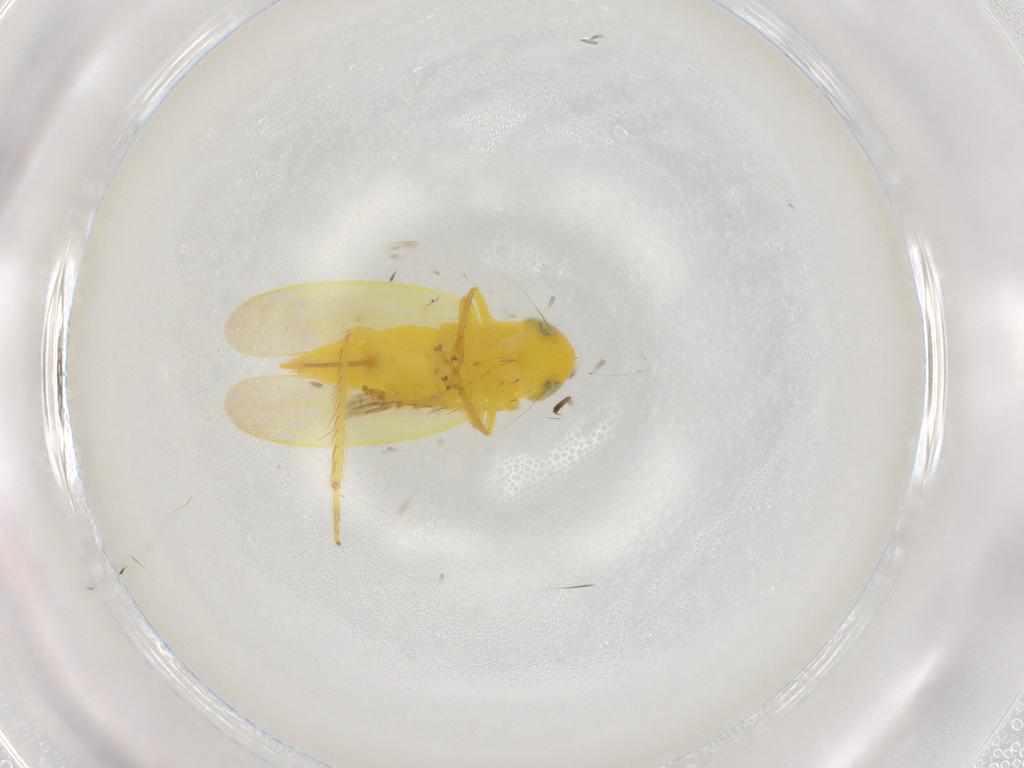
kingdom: Animalia
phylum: Arthropoda
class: Insecta
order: Hemiptera
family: Cicadellidae
